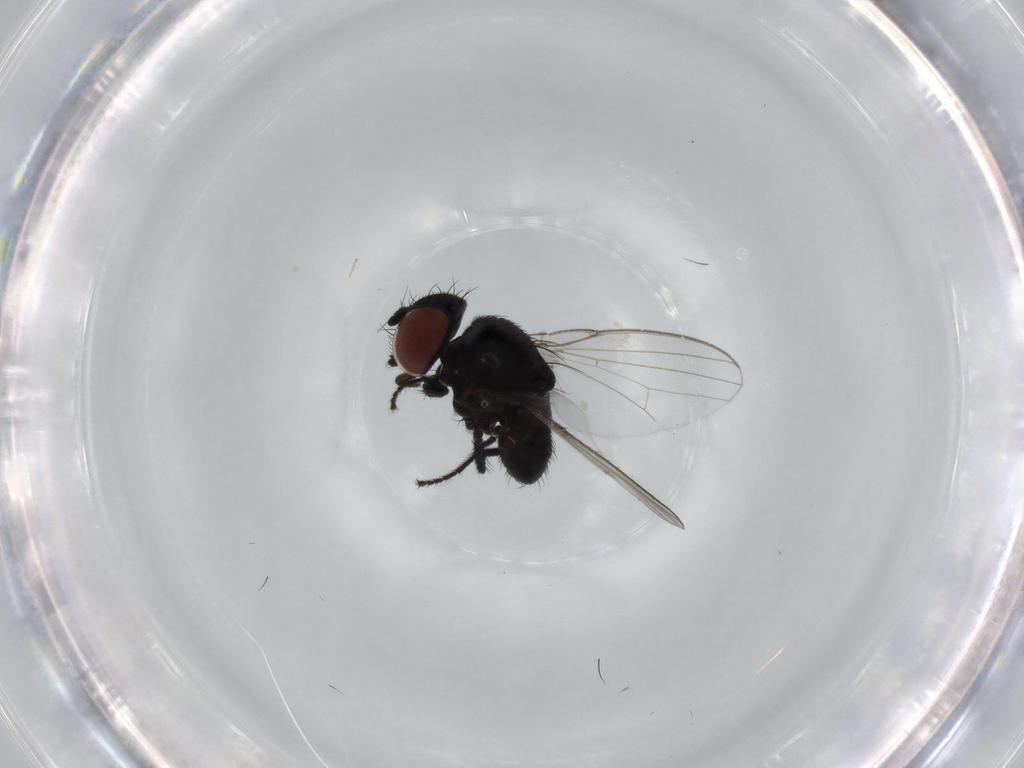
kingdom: Animalia
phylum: Arthropoda
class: Insecta
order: Diptera
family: Milichiidae
